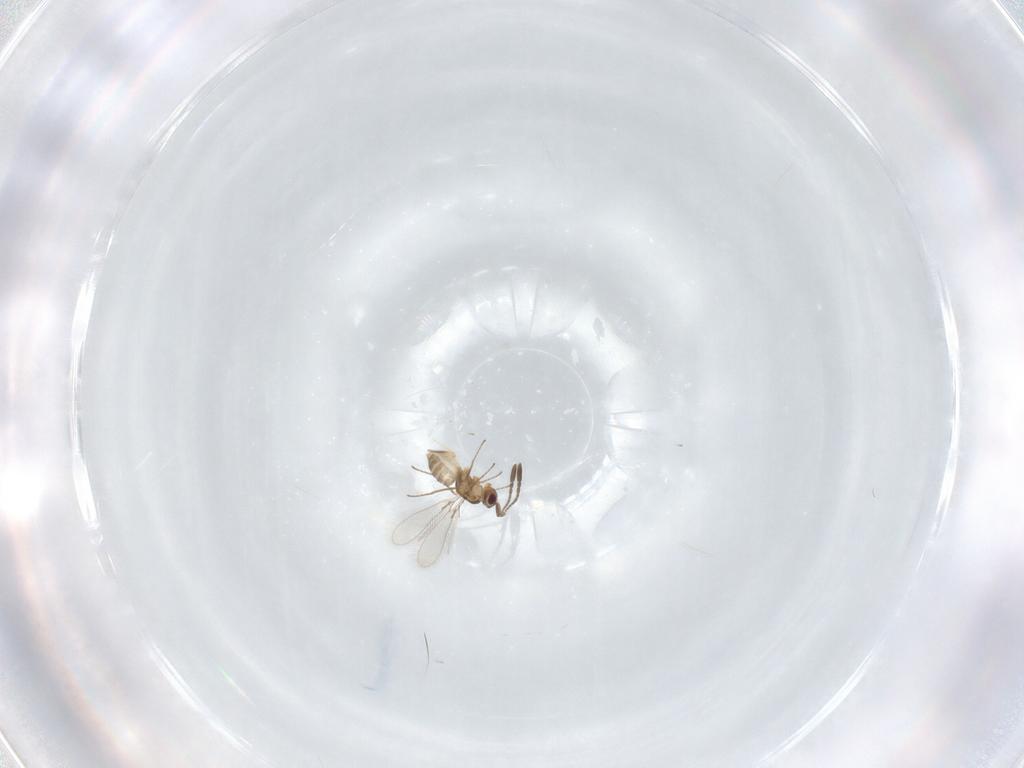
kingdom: Animalia
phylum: Arthropoda
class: Insecta
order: Hymenoptera
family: Mymaridae
